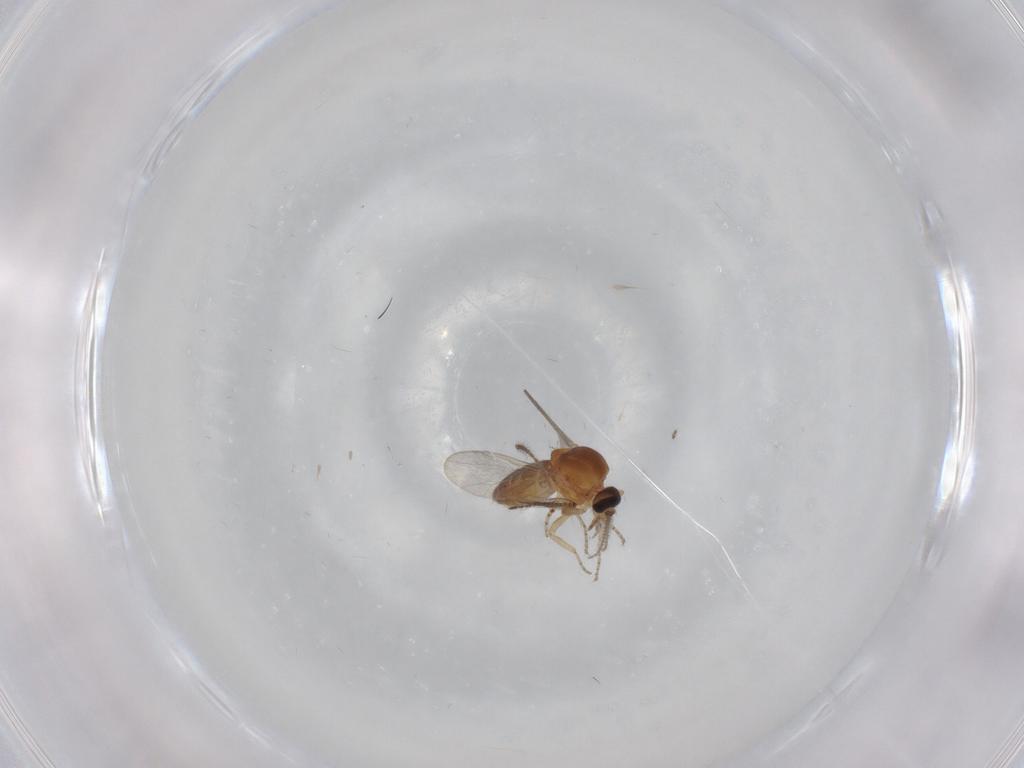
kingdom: Animalia
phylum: Arthropoda
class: Insecta
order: Diptera
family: Ceratopogonidae
